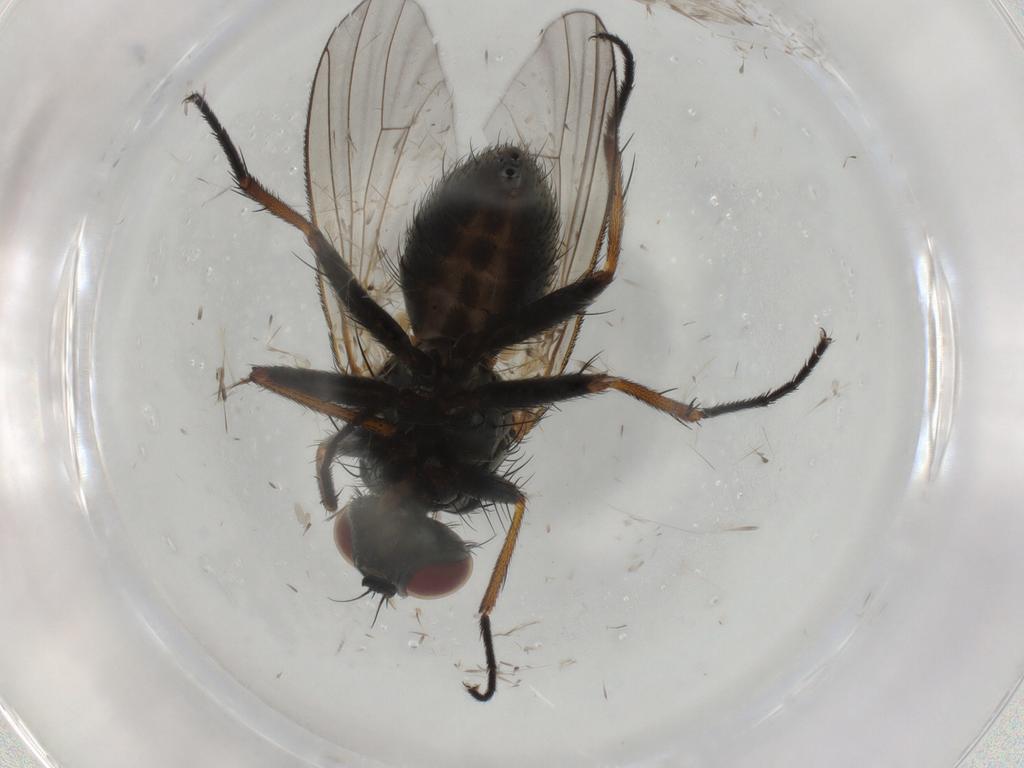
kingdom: Animalia
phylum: Arthropoda
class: Insecta
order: Diptera
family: Muscidae
